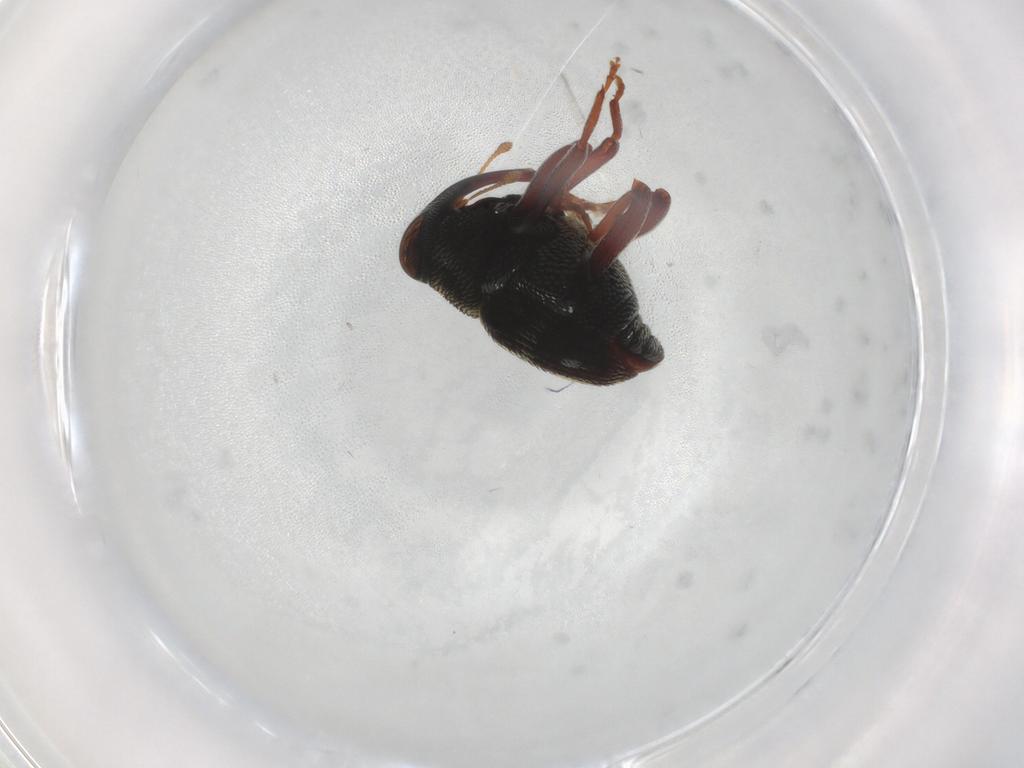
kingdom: Animalia
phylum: Arthropoda
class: Insecta
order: Coleoptera
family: Curculionidae
